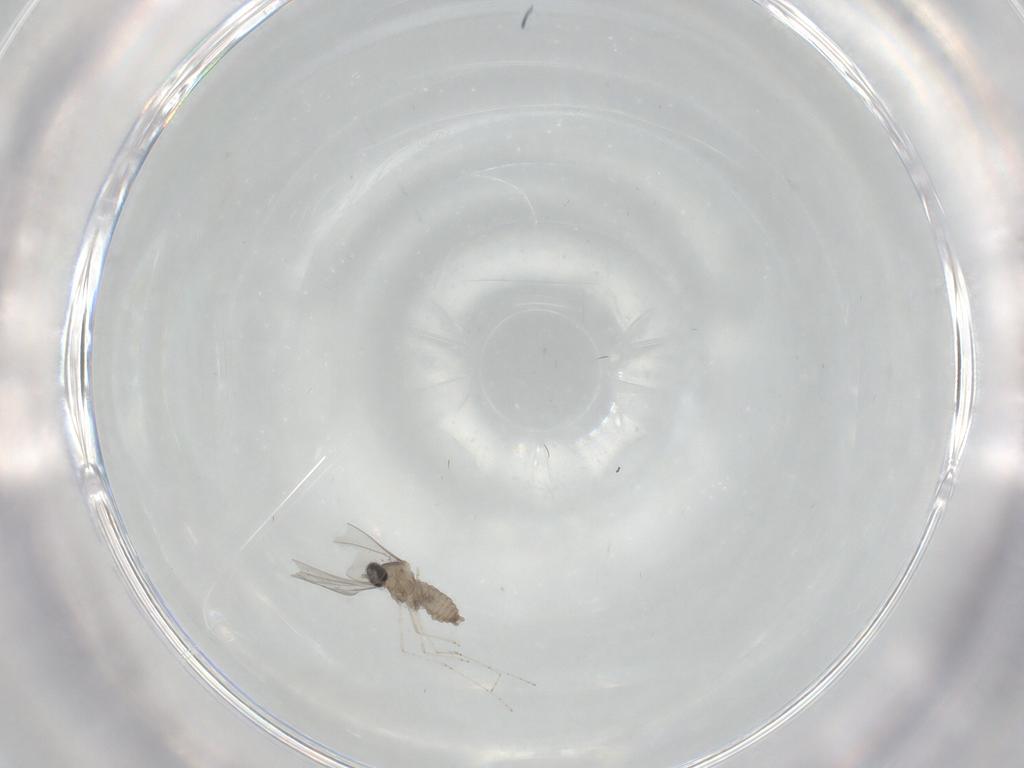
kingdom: Animalia
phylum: Arthropoda
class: Insecta
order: Diptera
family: Cecidomyiidae
